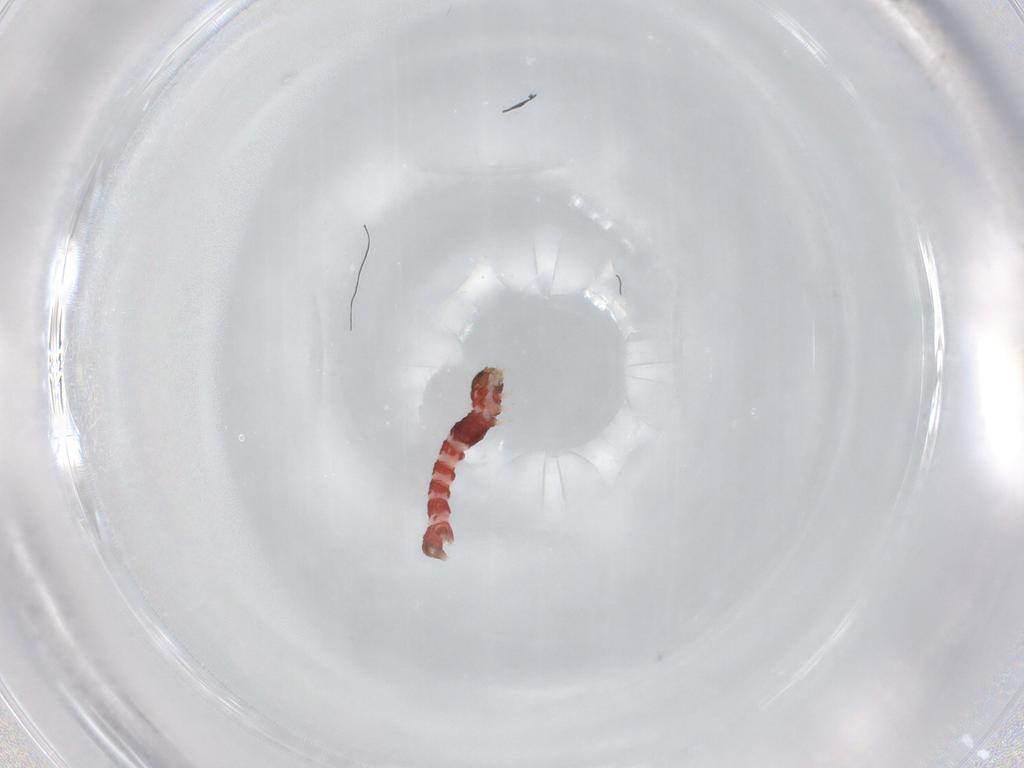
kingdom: Animalia
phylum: Arthropoda
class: Insecta
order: Lepidoptera
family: Geometridae
